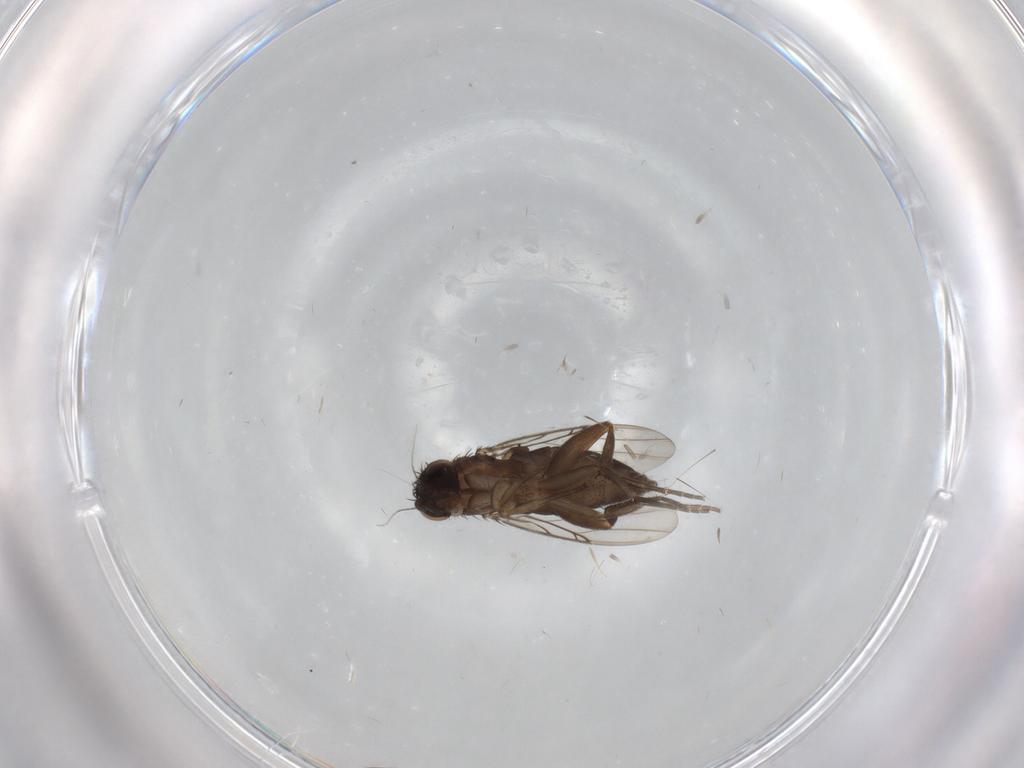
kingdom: Animalia
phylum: Arthropoda
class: Insecta
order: Diptera
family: Phoridae
